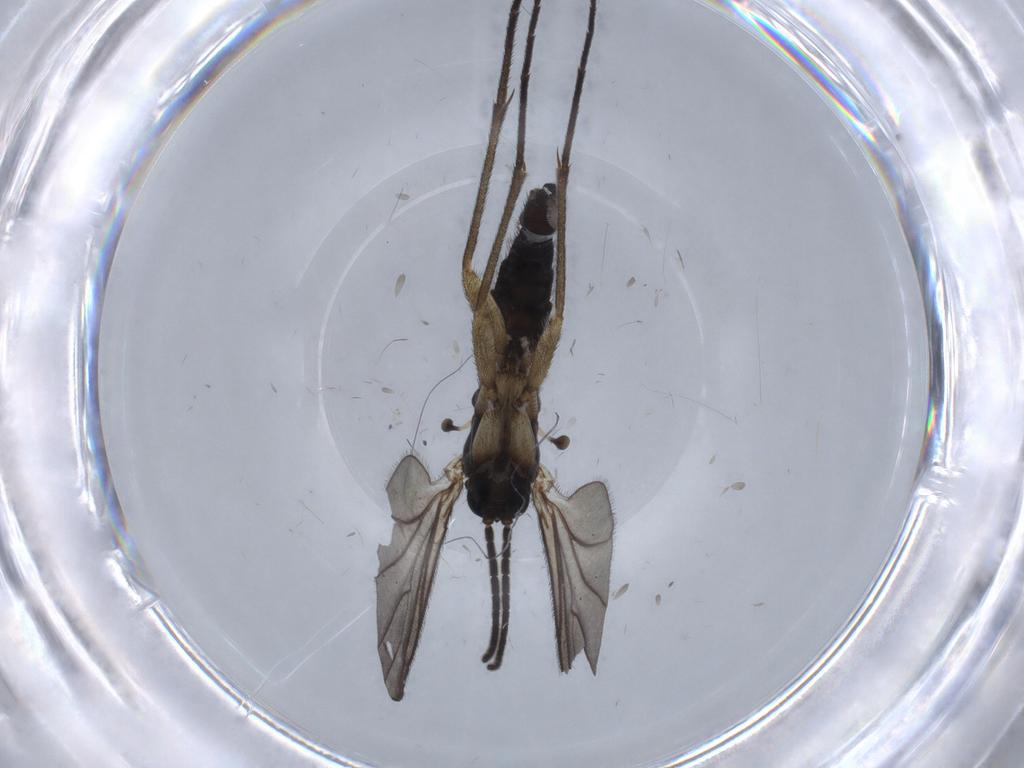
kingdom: Animalia
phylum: Arthropoda
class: Insecta
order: Diptera
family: Sciaridae
